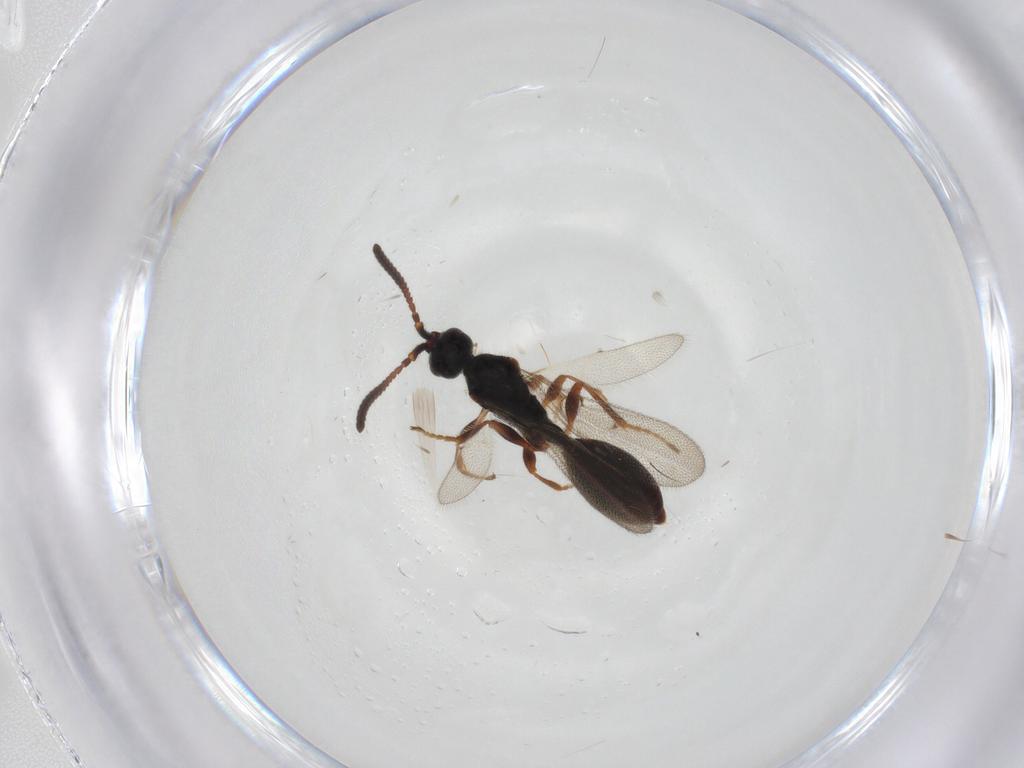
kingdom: Animalia
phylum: Arthropoda
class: Insecta
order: Hymenoptera
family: Diapriidae
